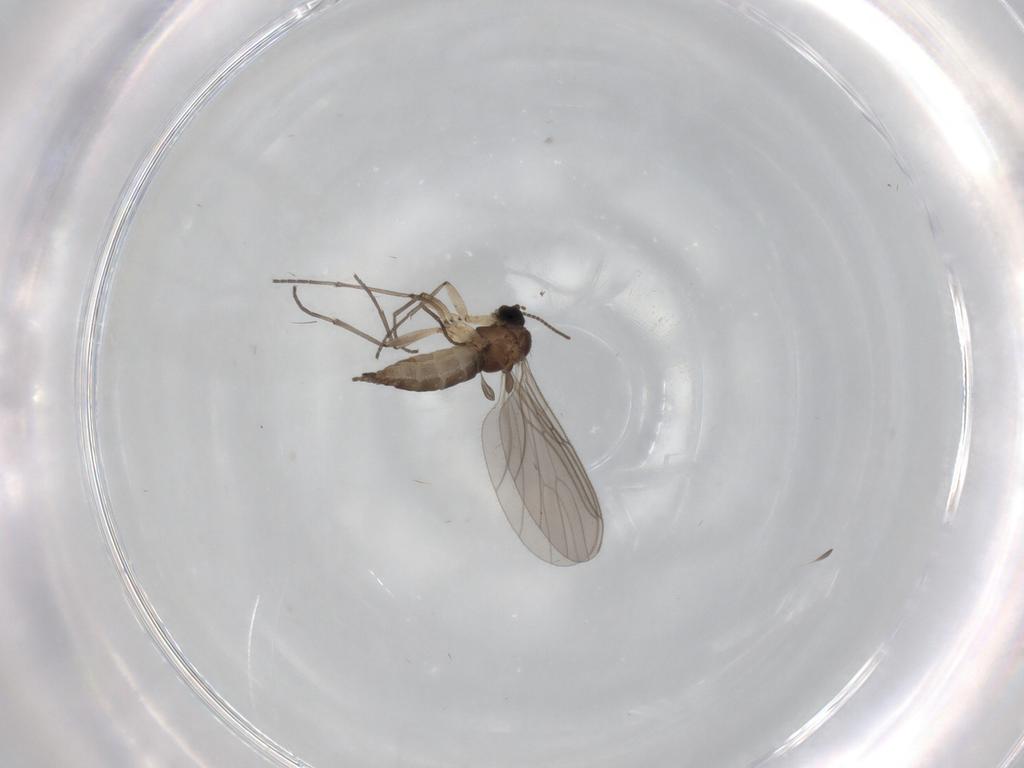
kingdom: Animalia
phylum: Arthropoda
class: Insecta
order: Diptera
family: Sciaridae
